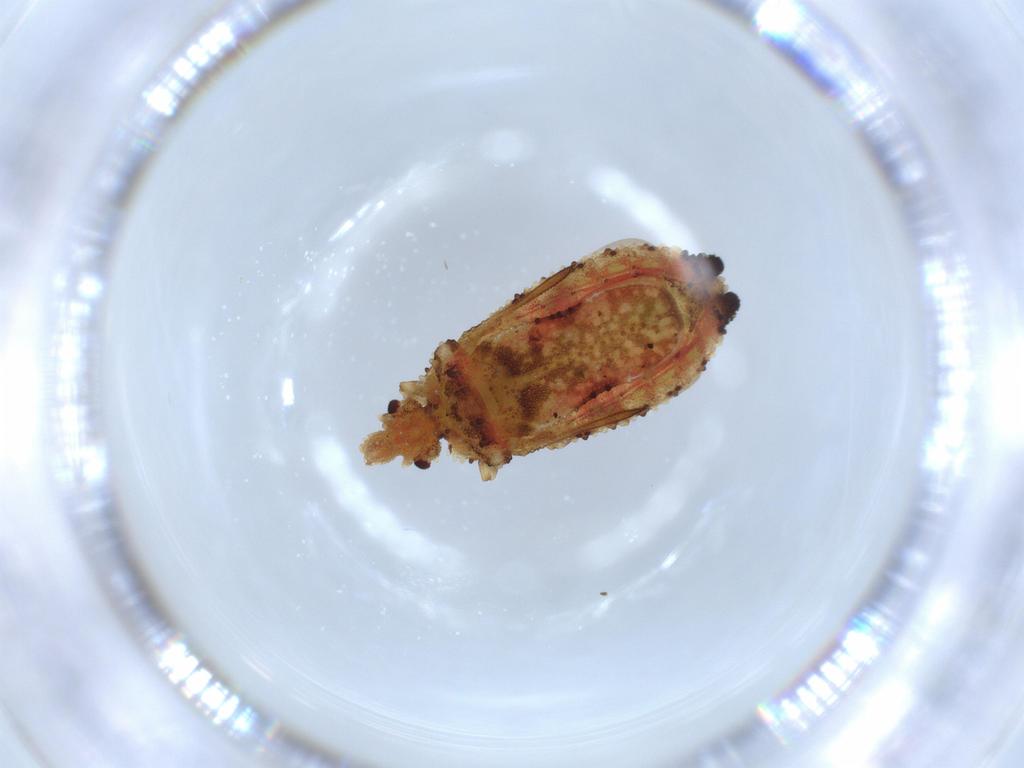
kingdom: Animalia
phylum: Arthropoda
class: Insecta
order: Hemiptera
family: Aradidae
